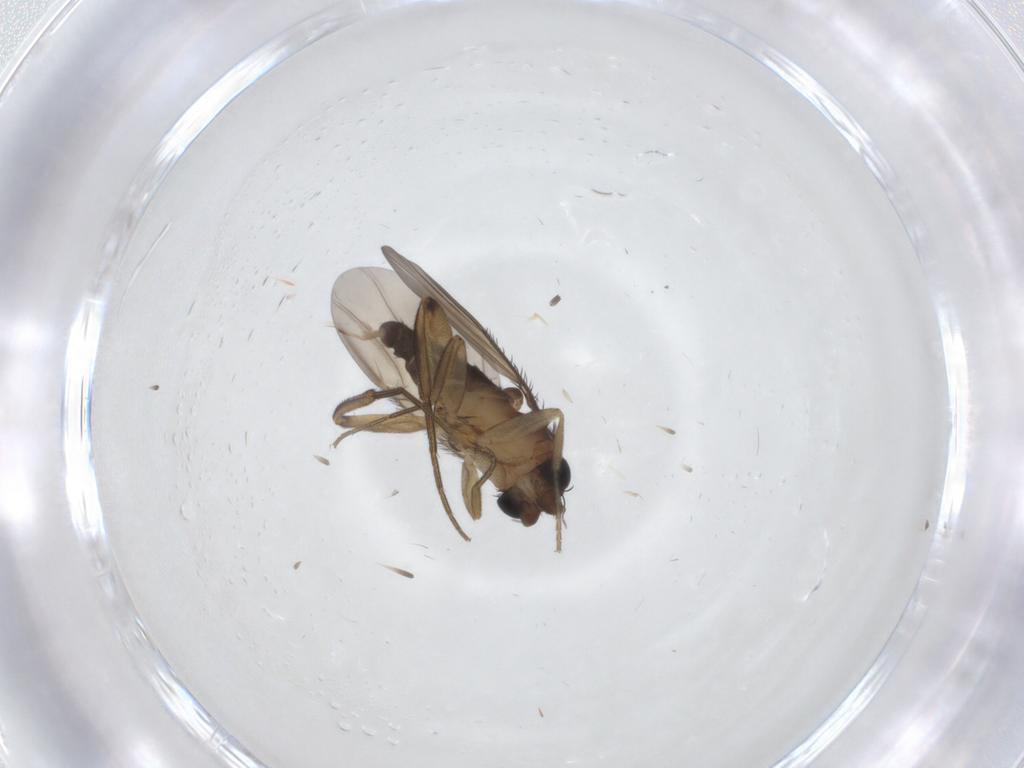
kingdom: Animalia
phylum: Arthropoda
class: Insecta
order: Diptera
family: Phoridae
